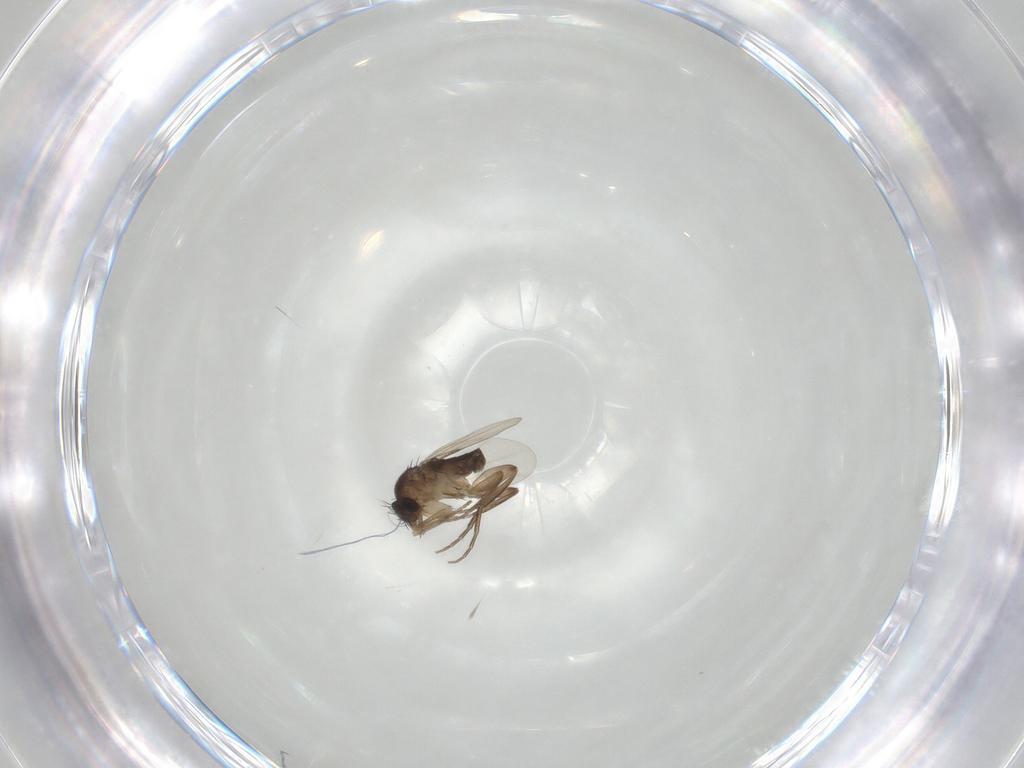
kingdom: Animalia
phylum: Arthropoda
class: Insecta
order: Diptera
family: Phoridae
